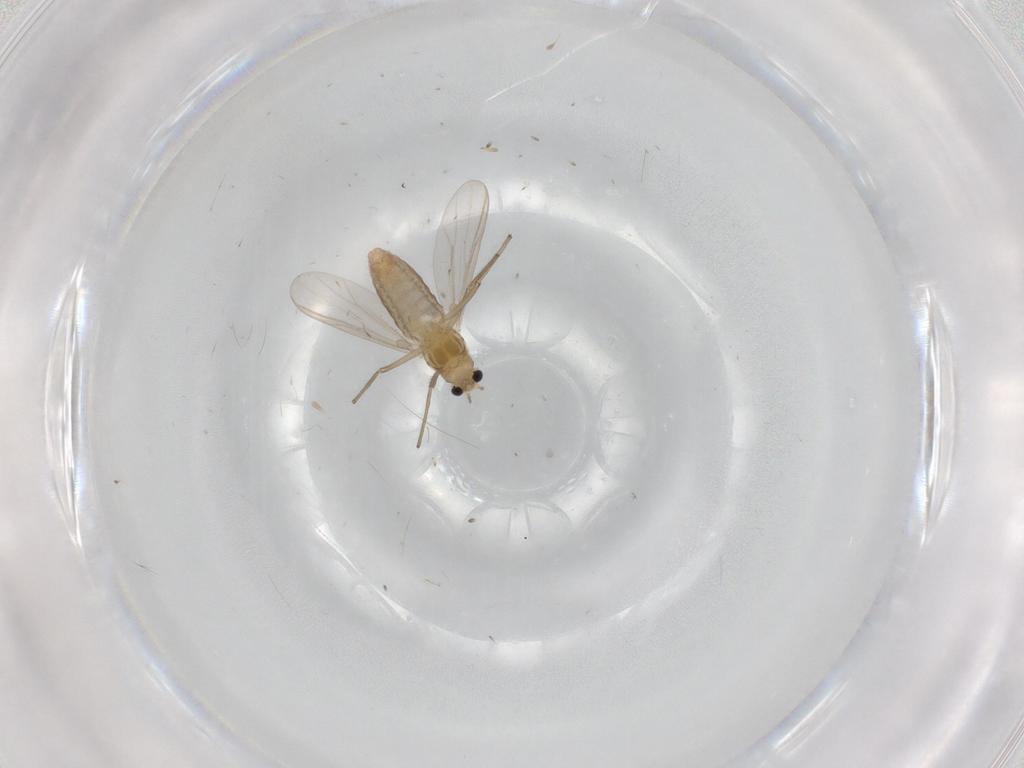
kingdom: Animalia
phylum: Arthropoda
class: Insecta
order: Diptera
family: Chironomidae
